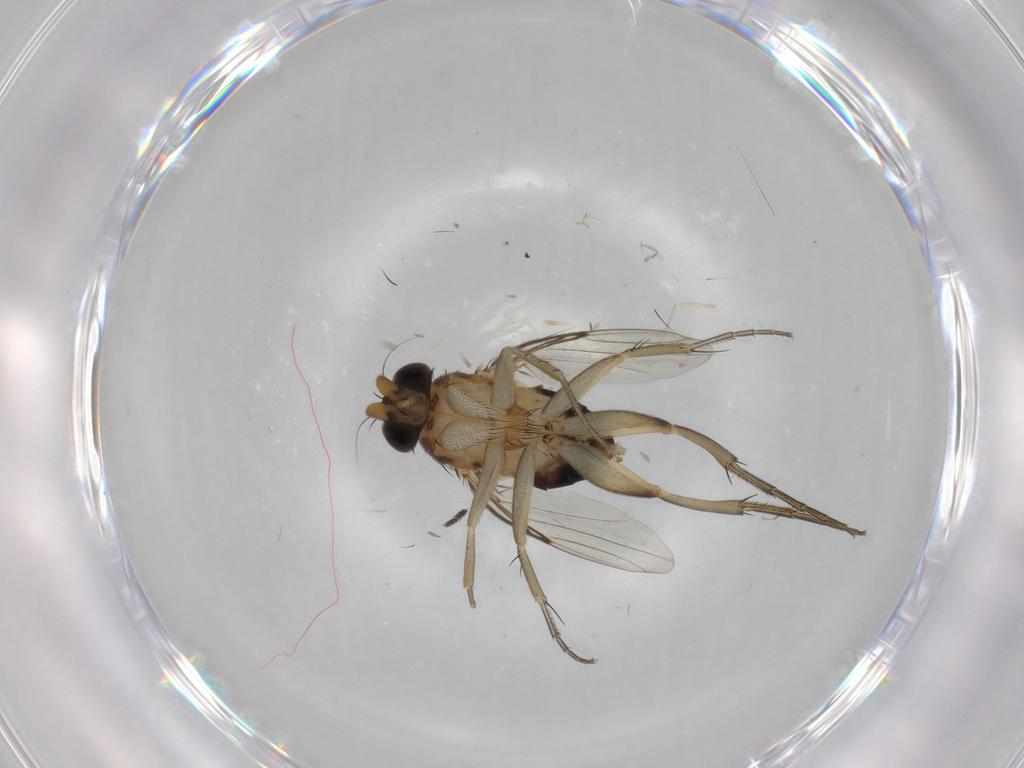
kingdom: Animalia
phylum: Arthropoda
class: Insecta
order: Diptera
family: Phoridae
